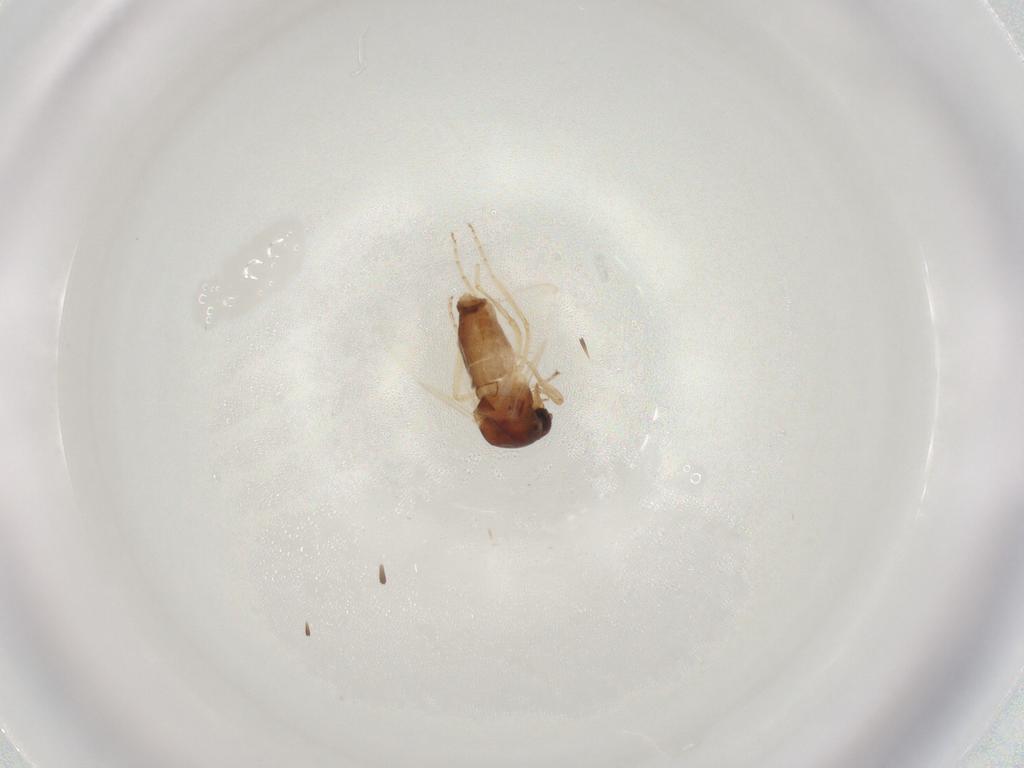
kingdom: Animalia
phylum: Arthropoda
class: Insecta
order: Diptera
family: Ceratopogonidae
